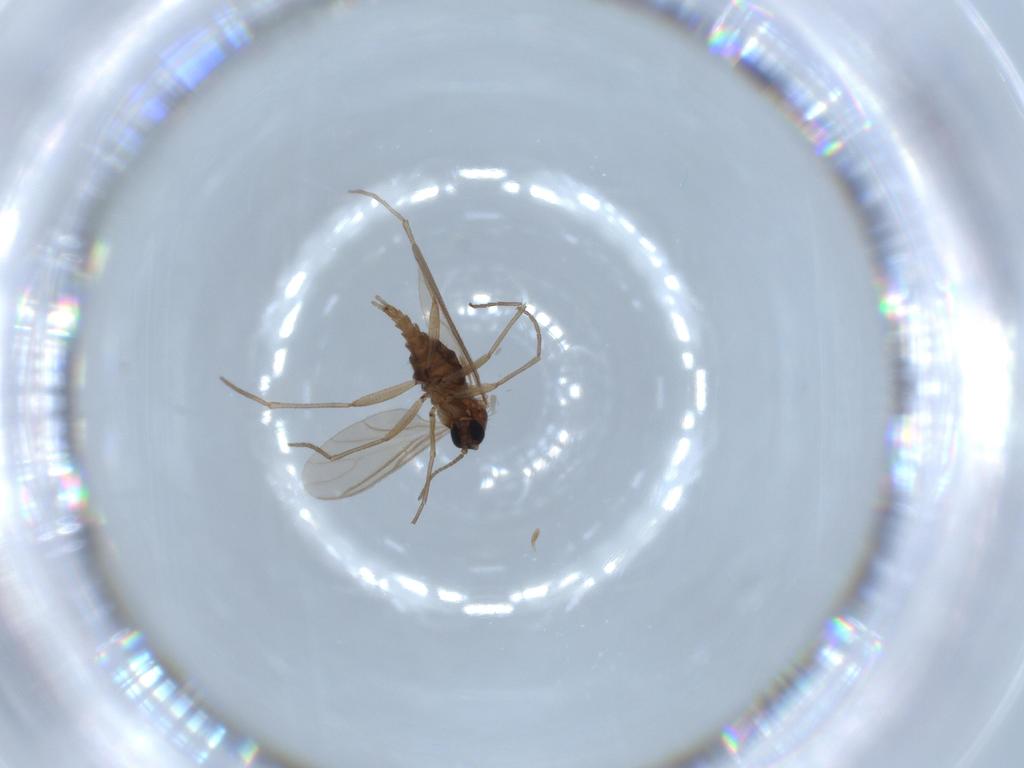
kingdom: Animalia
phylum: Arthropoda
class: Insecta
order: Diptera
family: Sciaridae
